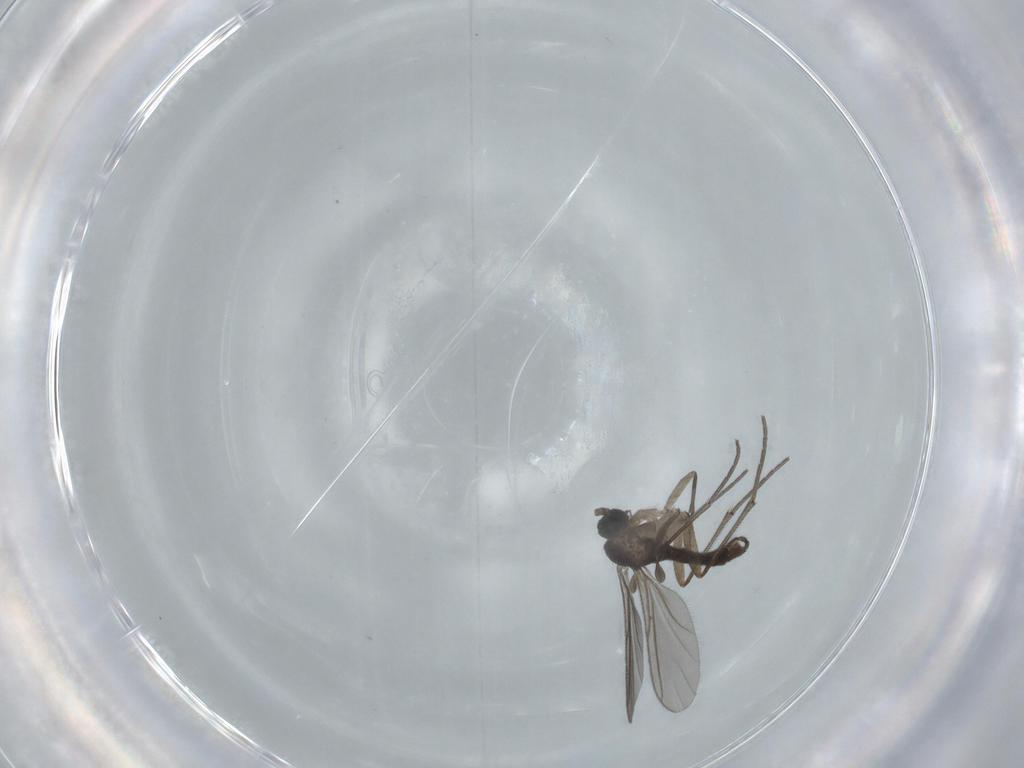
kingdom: Animalia
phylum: Arthropoda
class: Insecta
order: Diptera
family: Sciaridae
